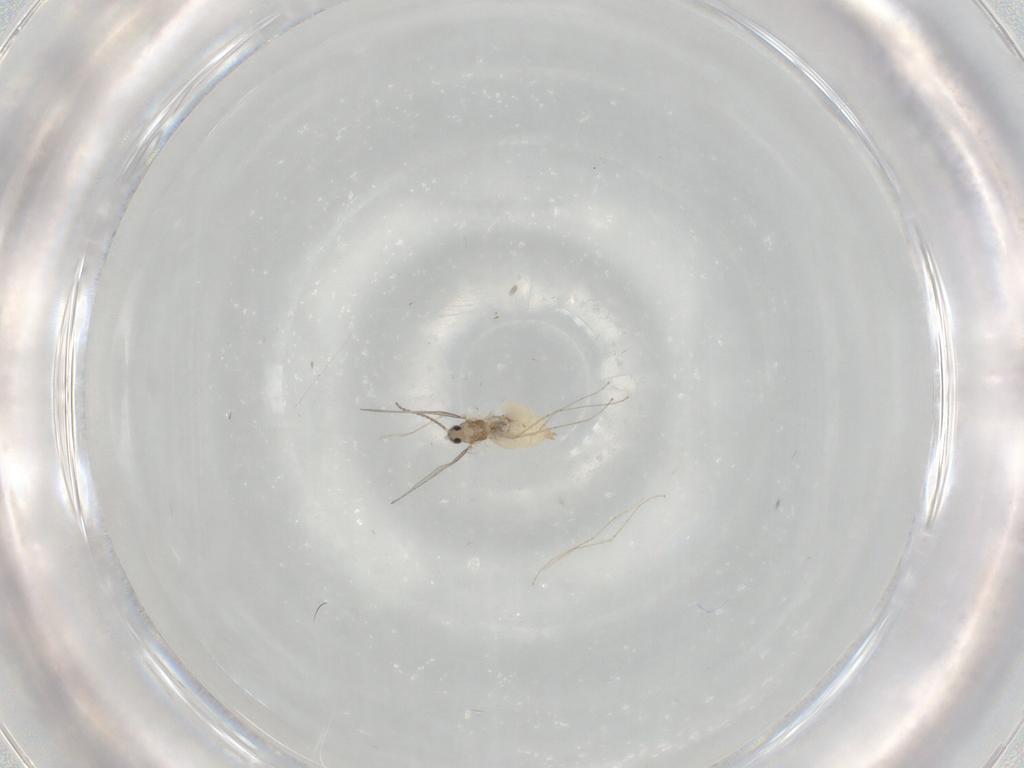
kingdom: Animalia
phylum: Arthropoda
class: Insecta
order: Diptera
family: Cecidomyiidae
